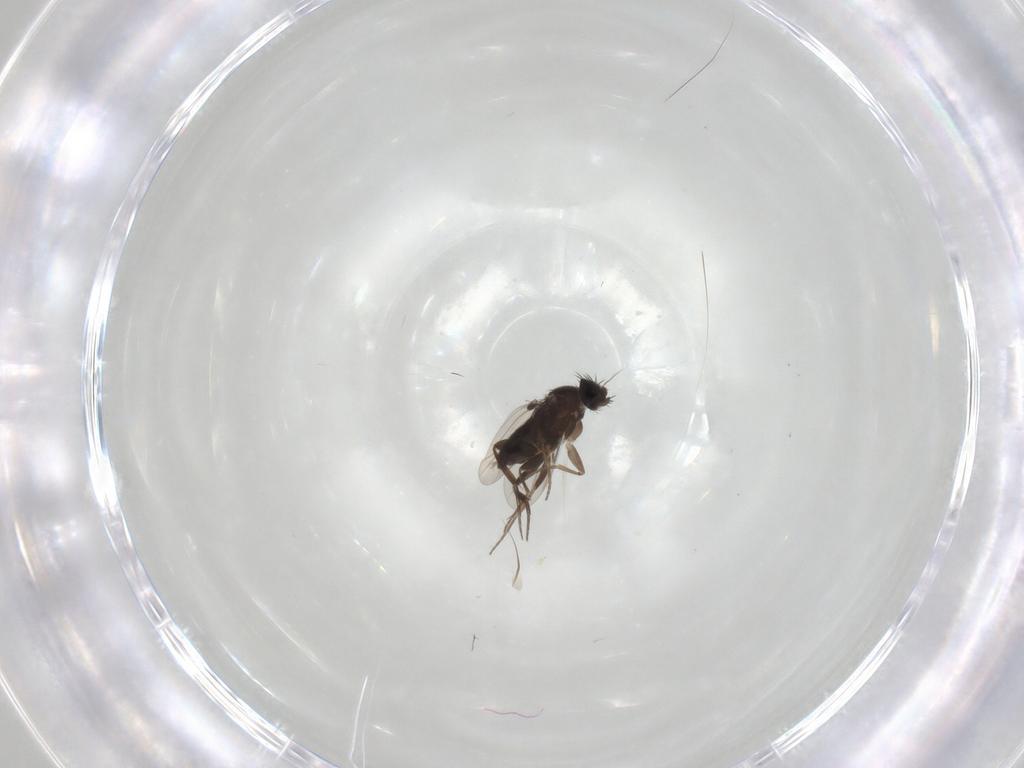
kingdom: Animalia
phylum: Arthropoda
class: Insecta
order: Diptera
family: Phoridae
